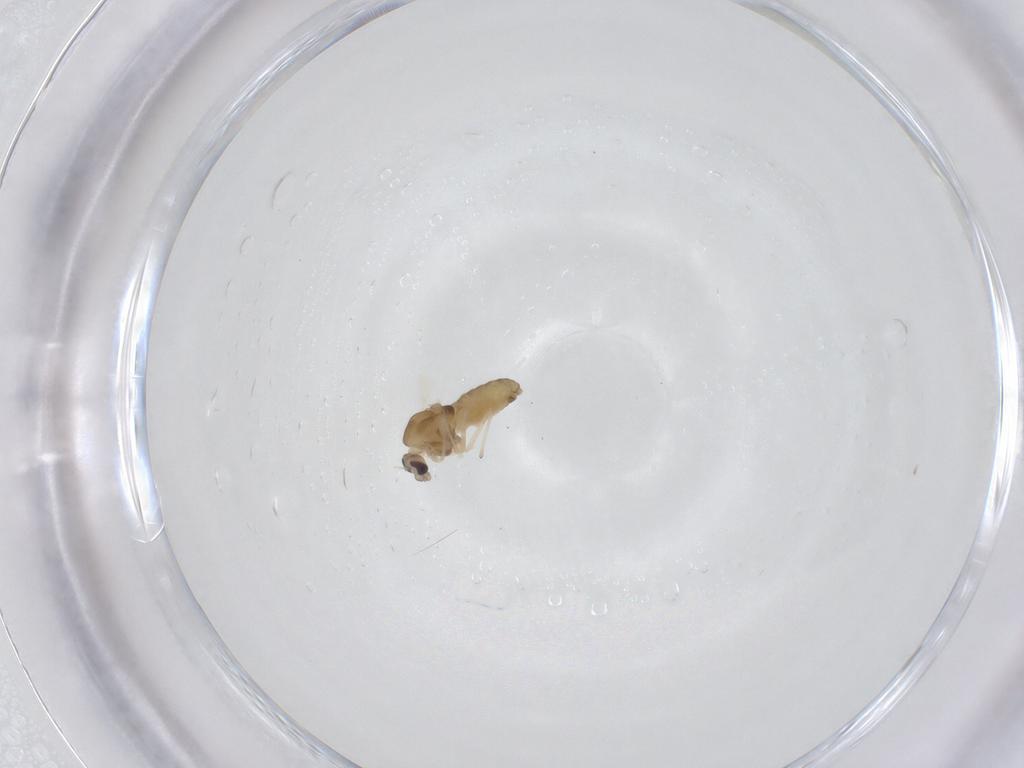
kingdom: Animalia
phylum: Arthropoda
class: Insecta
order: Diptera
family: Chironomidae
